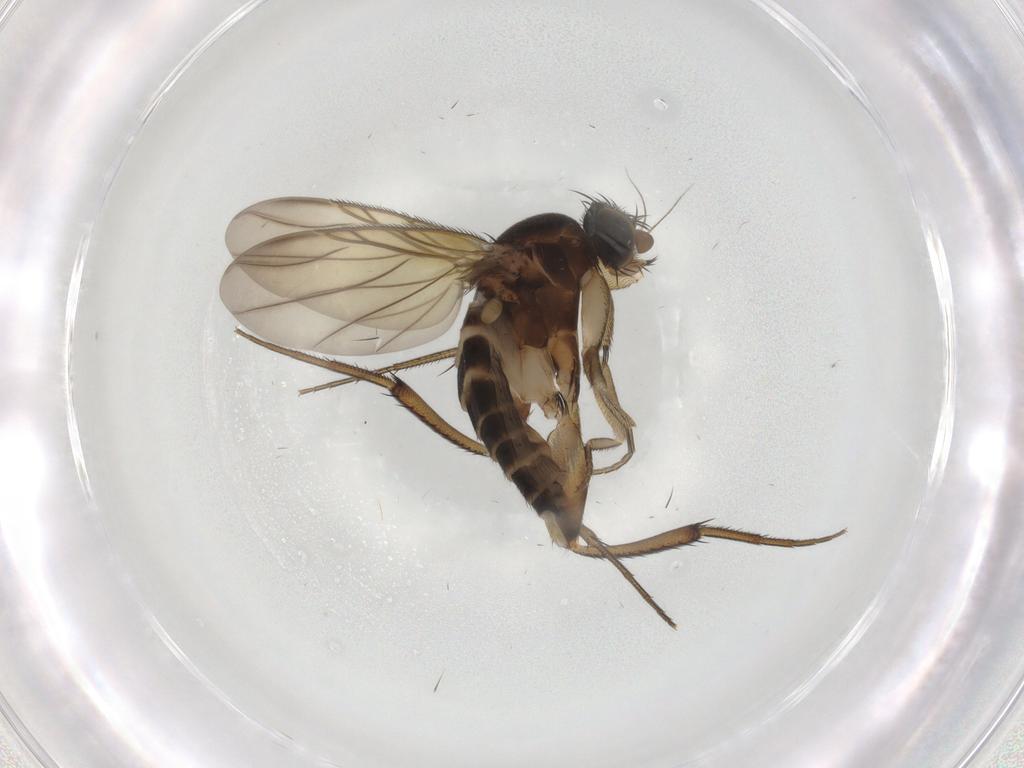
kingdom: Animalia
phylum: Arthropoda
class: Insecta
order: Diptera
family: Phoridae
